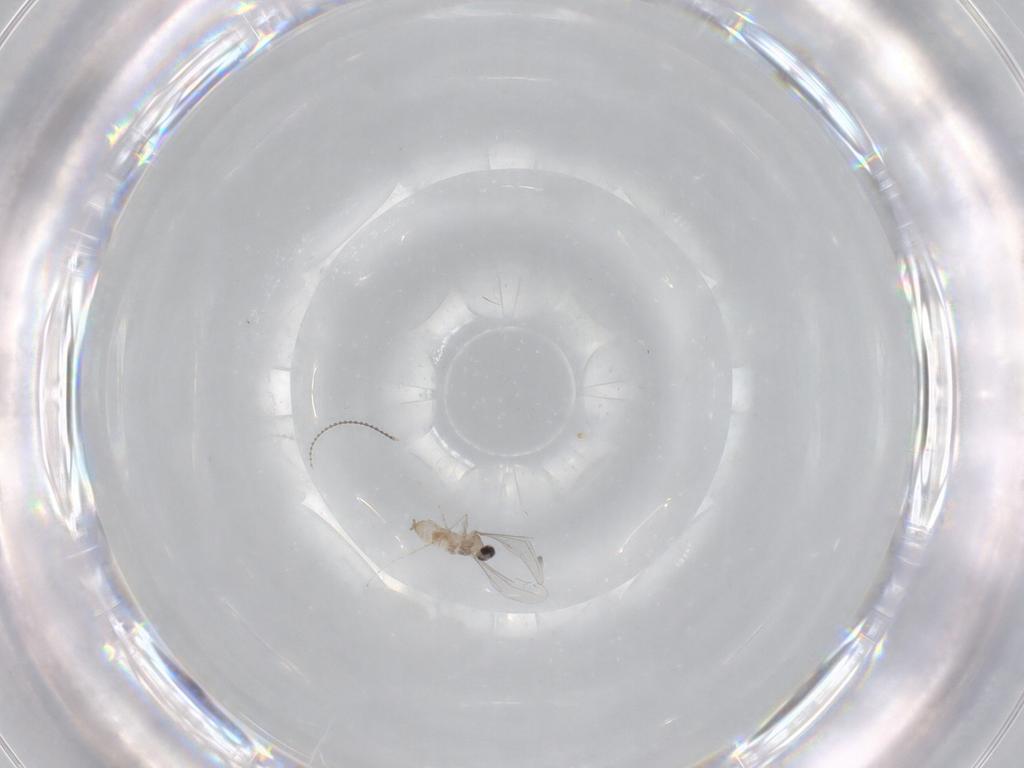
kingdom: Animalia
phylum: Arthropoda
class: Insecta
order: Diptera
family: Cecidomyiidae
